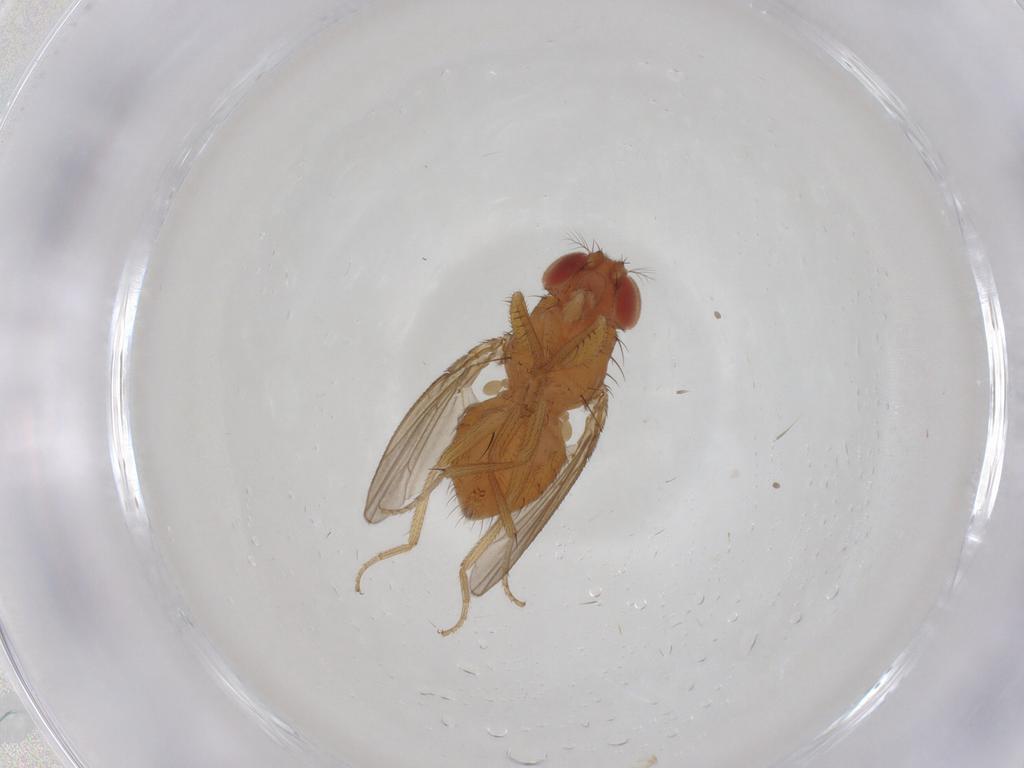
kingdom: Animalia
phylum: Arthropoda
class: Insecta
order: Diptera
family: Drosophilidae
